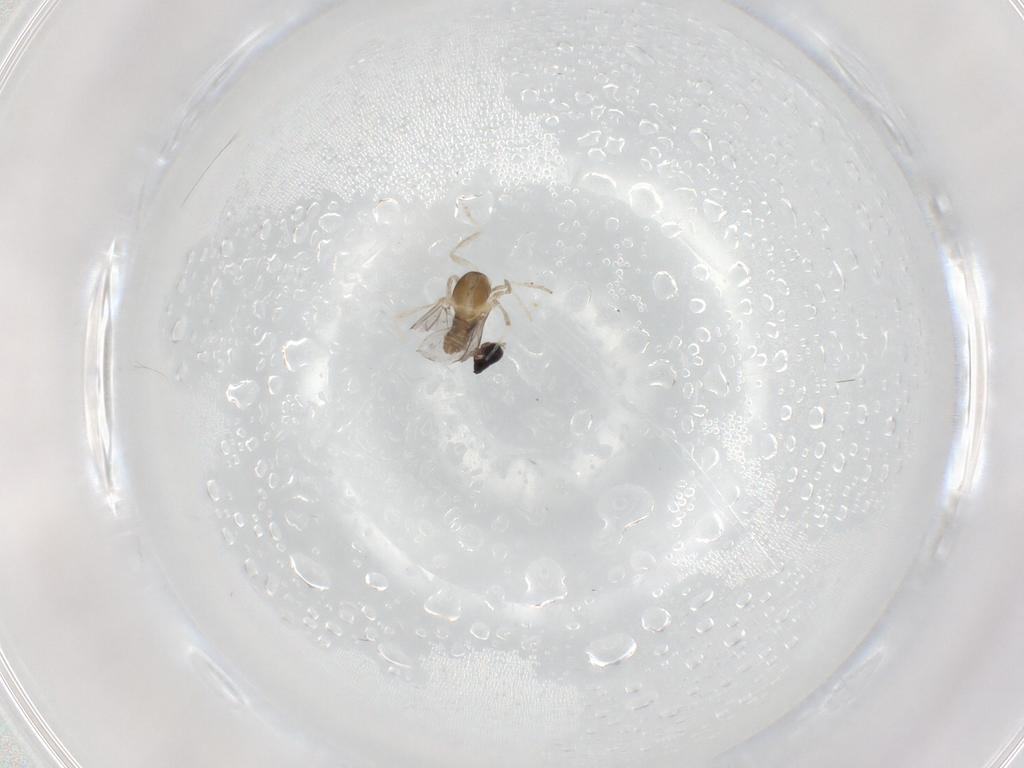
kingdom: Animalia
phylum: Arthropoda
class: Insecta
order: Diptera
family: Cecidomyiidae
